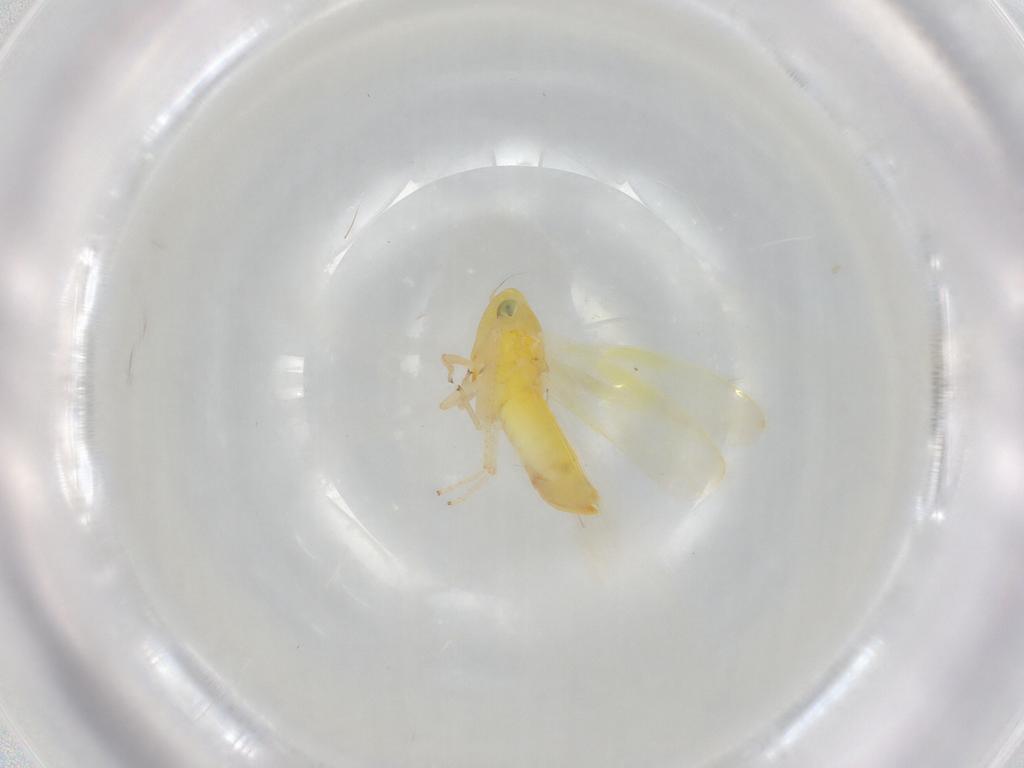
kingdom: Animalia
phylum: Arthropoda
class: Insecta
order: Hemiptera
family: Cicadellidae
